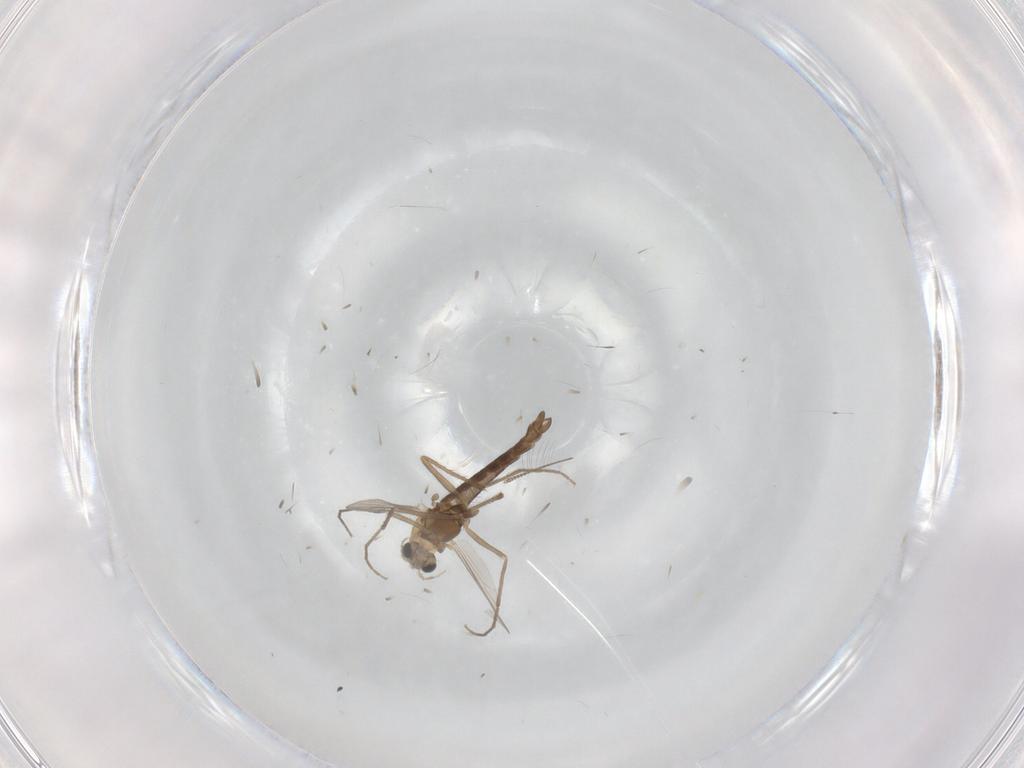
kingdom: Animalia
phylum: Arthropoda
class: Insecta
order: Diptera
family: Chironomidae
